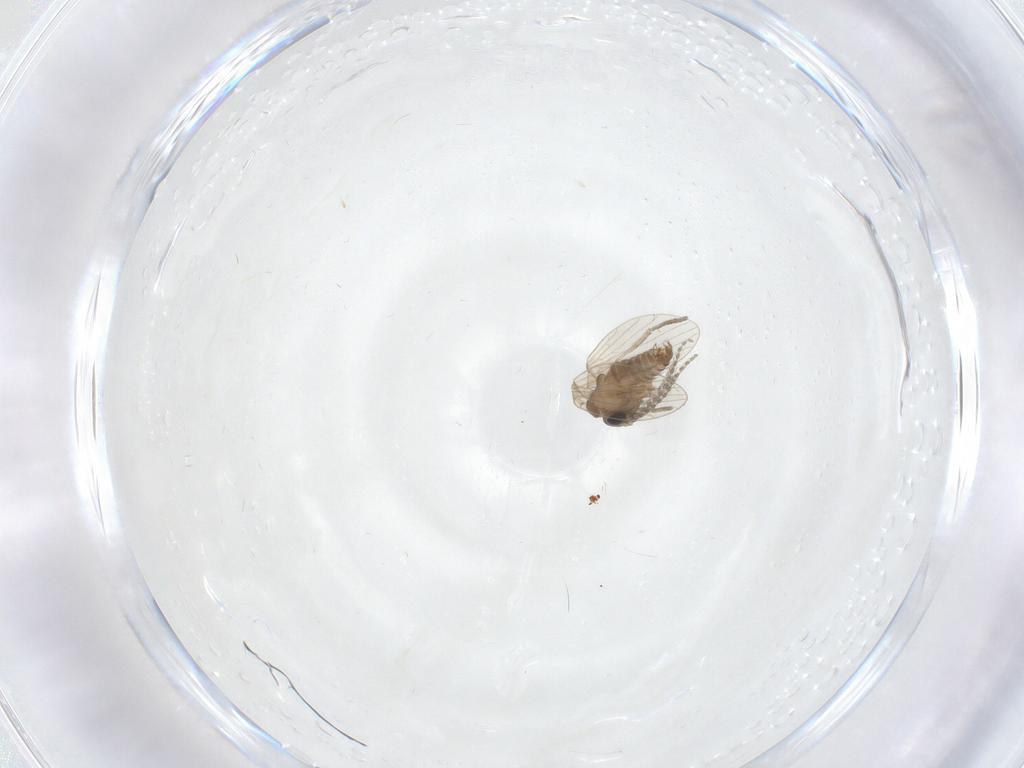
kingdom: Animalia
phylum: Arthropoda
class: Insecta
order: Diptera
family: Psychodidae
